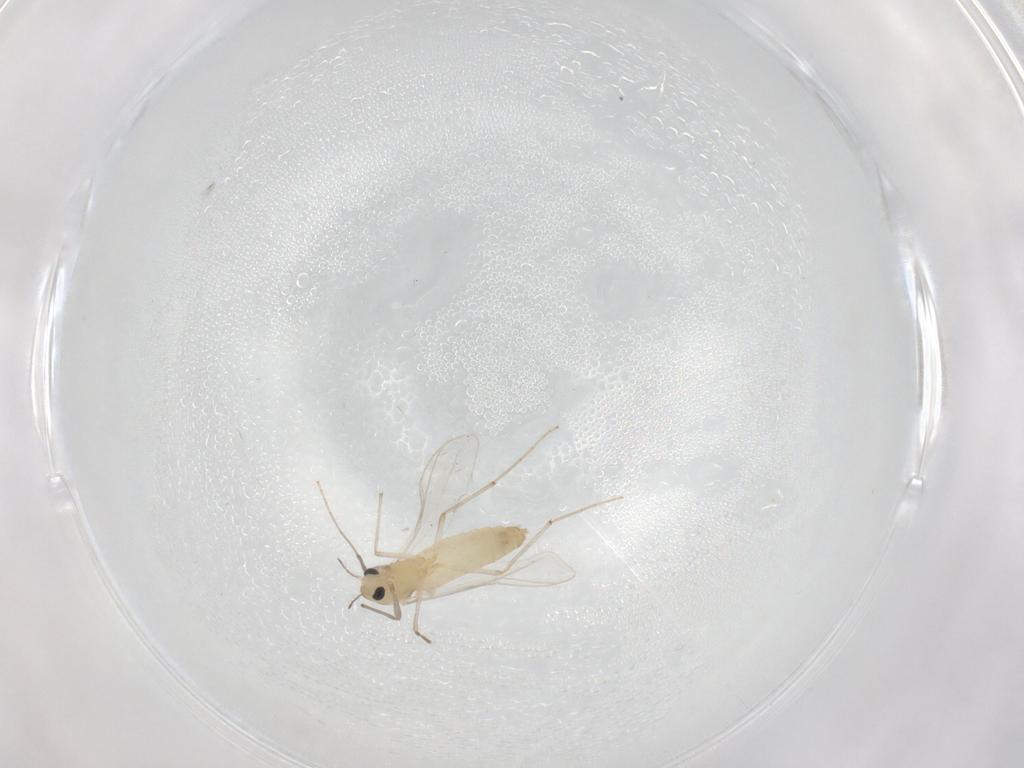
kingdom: Animalia
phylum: Arthropoda
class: Insecta
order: Diptera
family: Chironomidae
